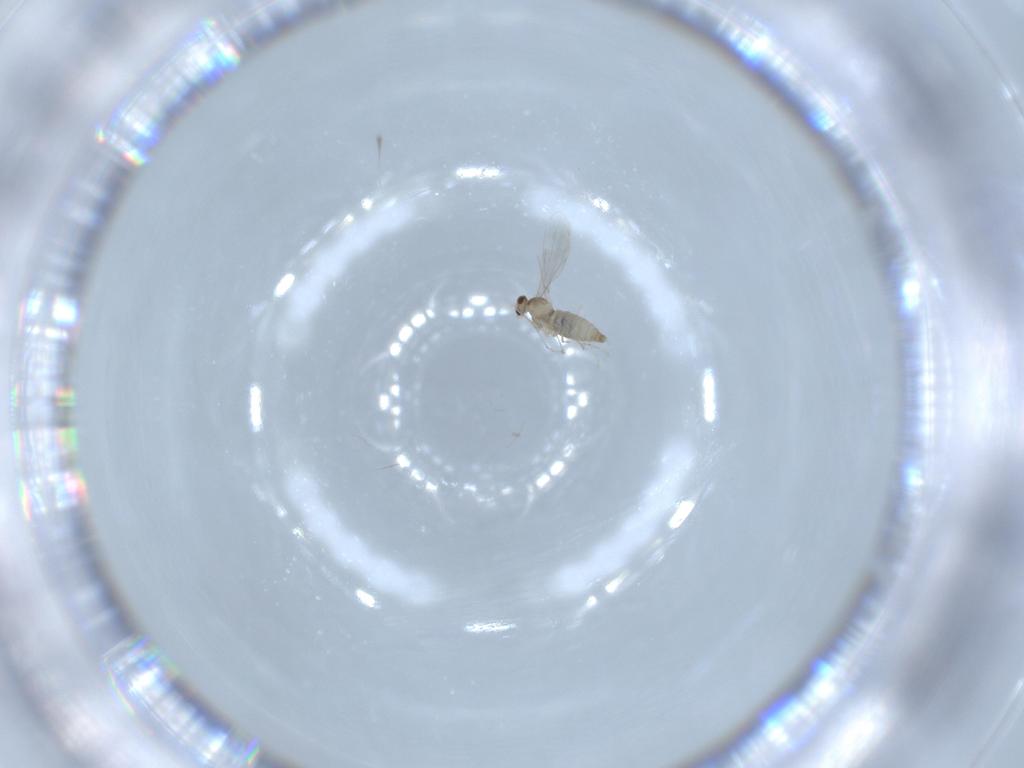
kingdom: Animalia
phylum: Arthropoda
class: Insecta
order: Diptera
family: Cecidomyiidae
